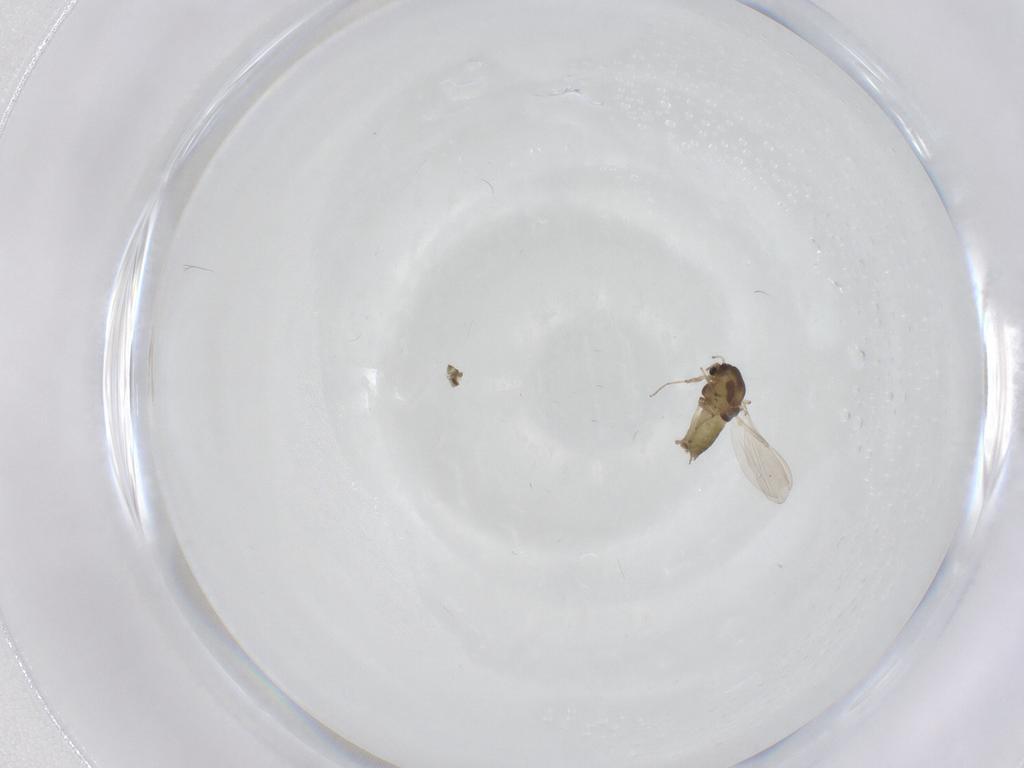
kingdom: Animalia
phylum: Arthropoda
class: Insecta
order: Diptera
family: Chironomidae
